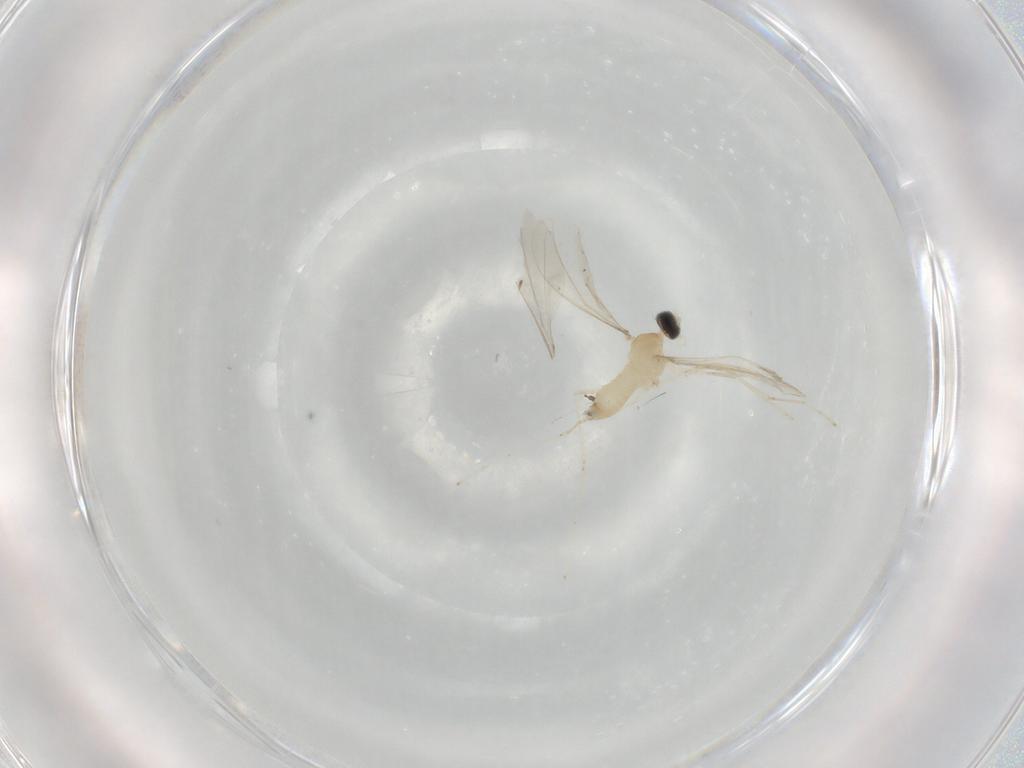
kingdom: Animalia
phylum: Arthropoda
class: Insecta
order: Diptera
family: Cecidomyiidae
